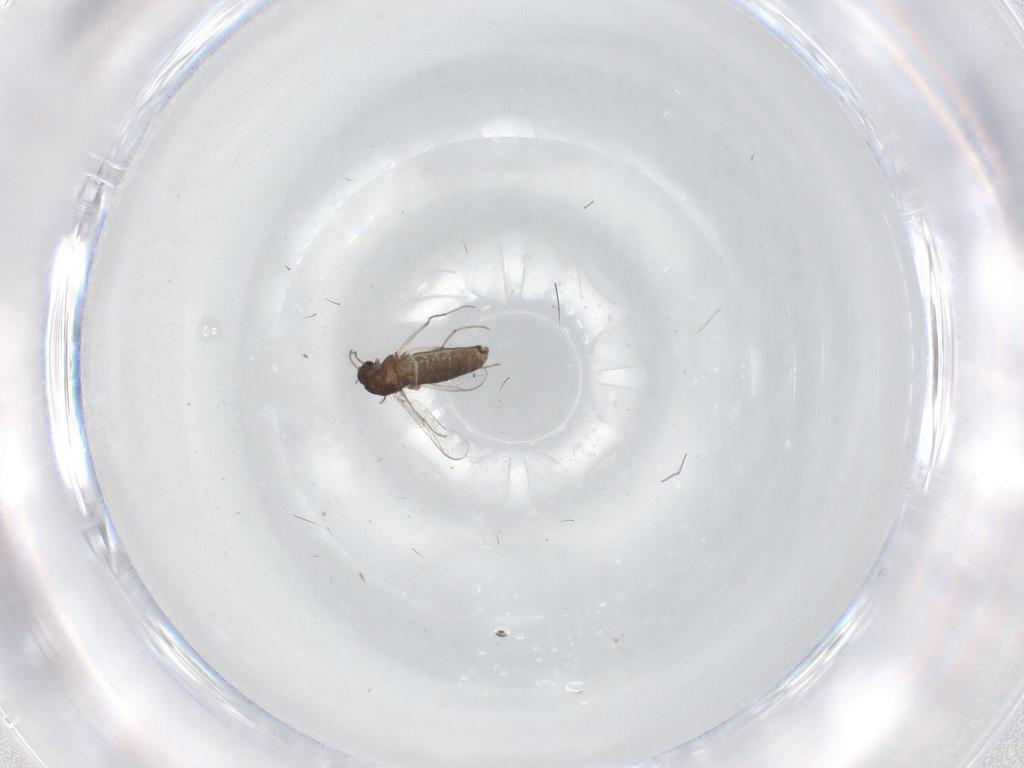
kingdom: Animalia
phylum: Arthropoda
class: Insecta
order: Diptera
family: Chironomidae
